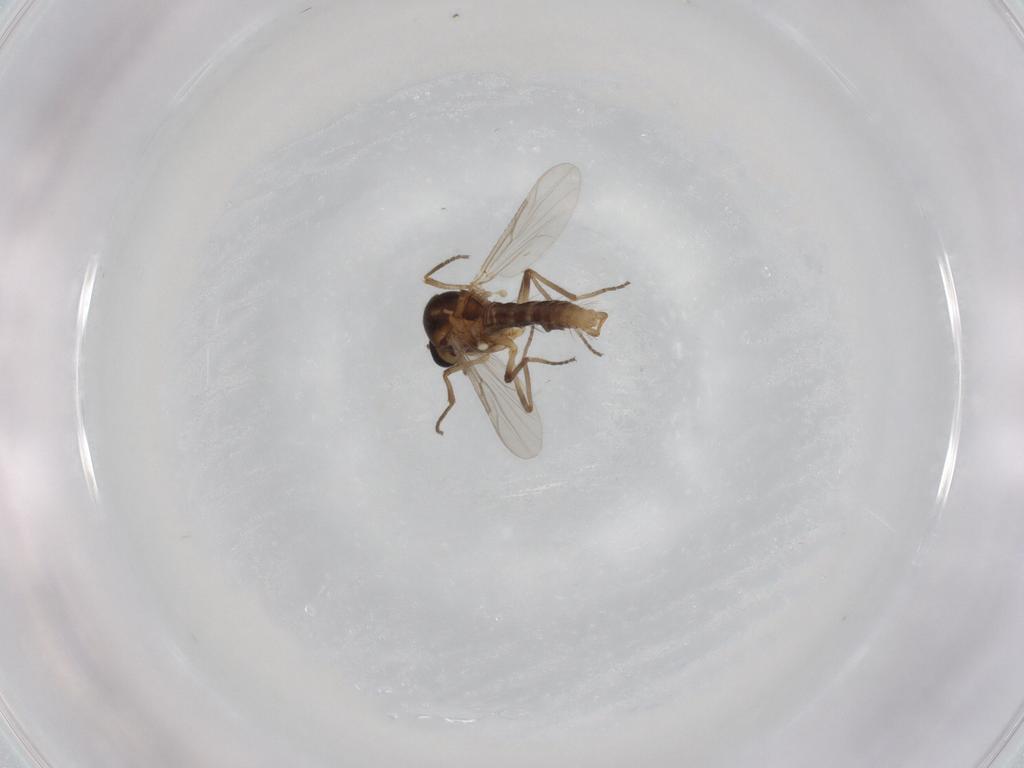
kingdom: Animalia
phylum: Arthropoda
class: Insecta
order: Diptera
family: Ceratopogonidae
